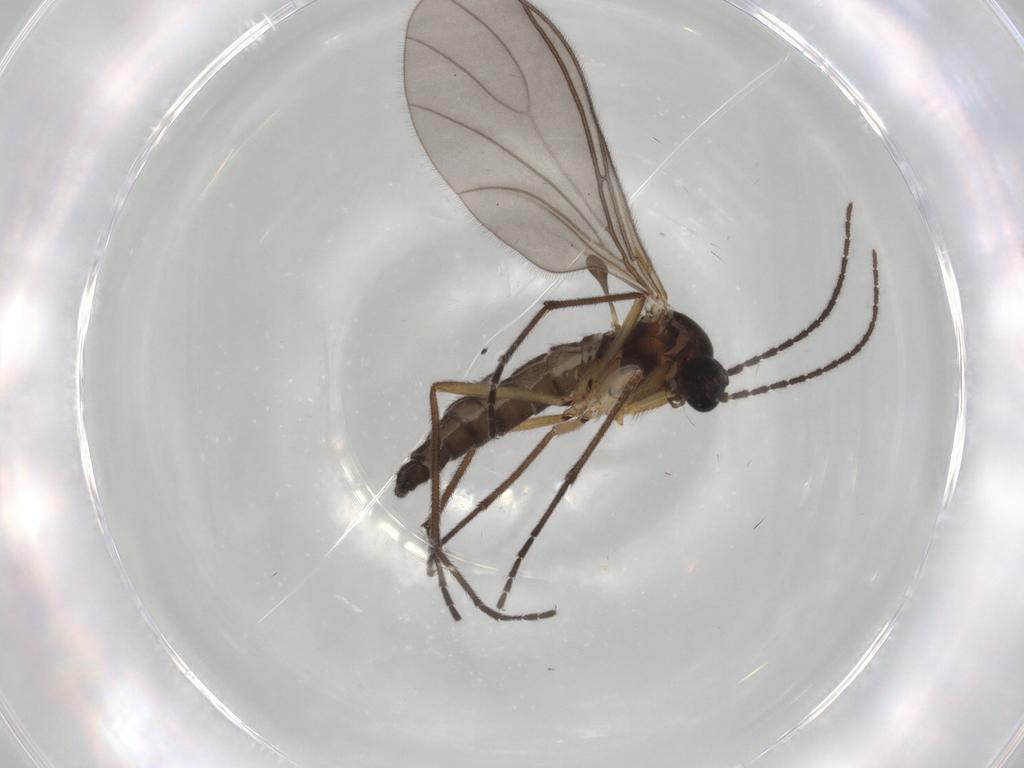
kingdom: Animalia
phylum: Arthropoda
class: Insecta
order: Diptera
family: Sciaridae
